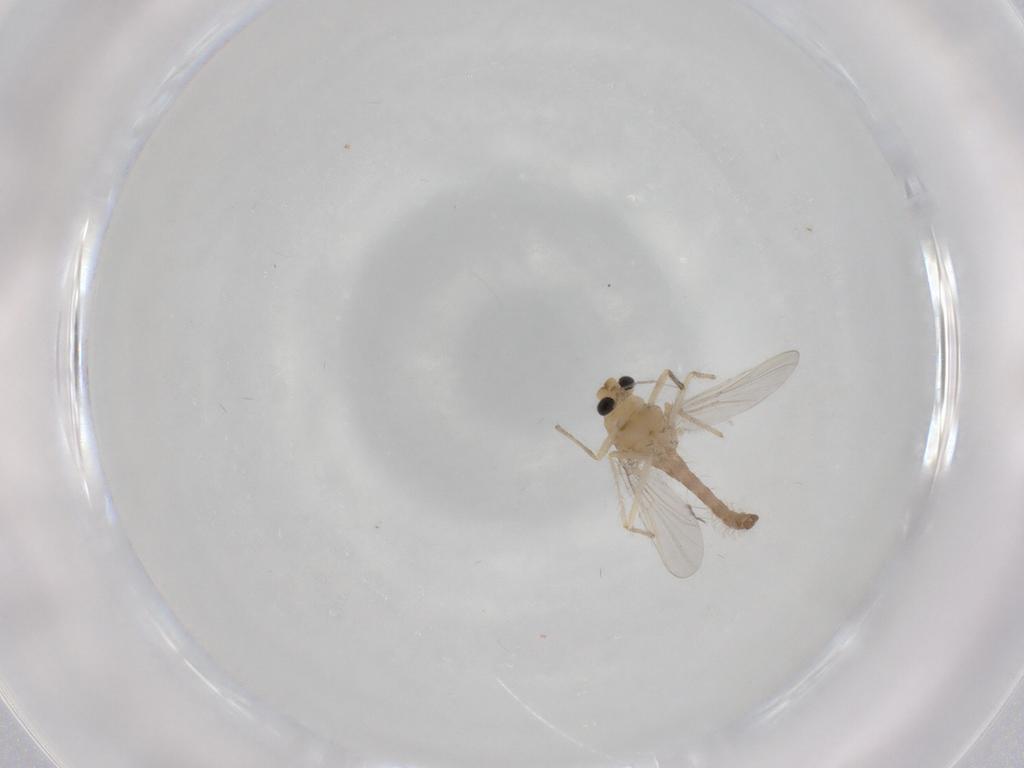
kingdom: Animalia
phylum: Arthropoda
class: Insecta
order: Diptera
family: Chironomidae
